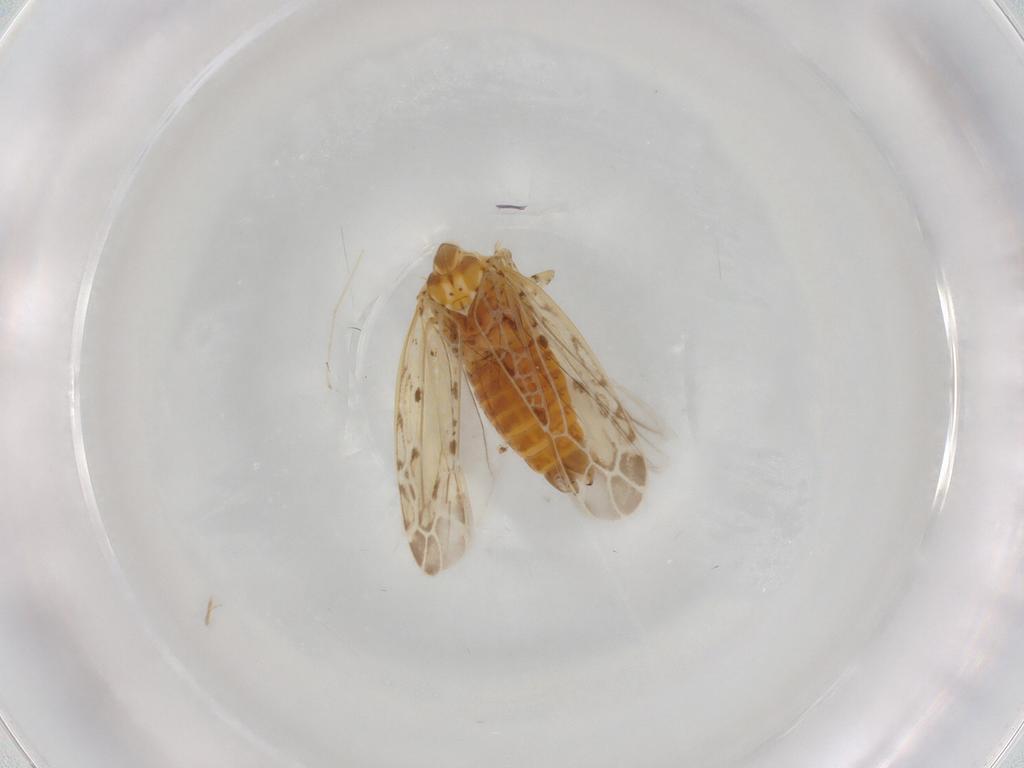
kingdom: Animalia
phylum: Arthropoda
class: Insecta
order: Hemiptera
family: Cicadellidae
